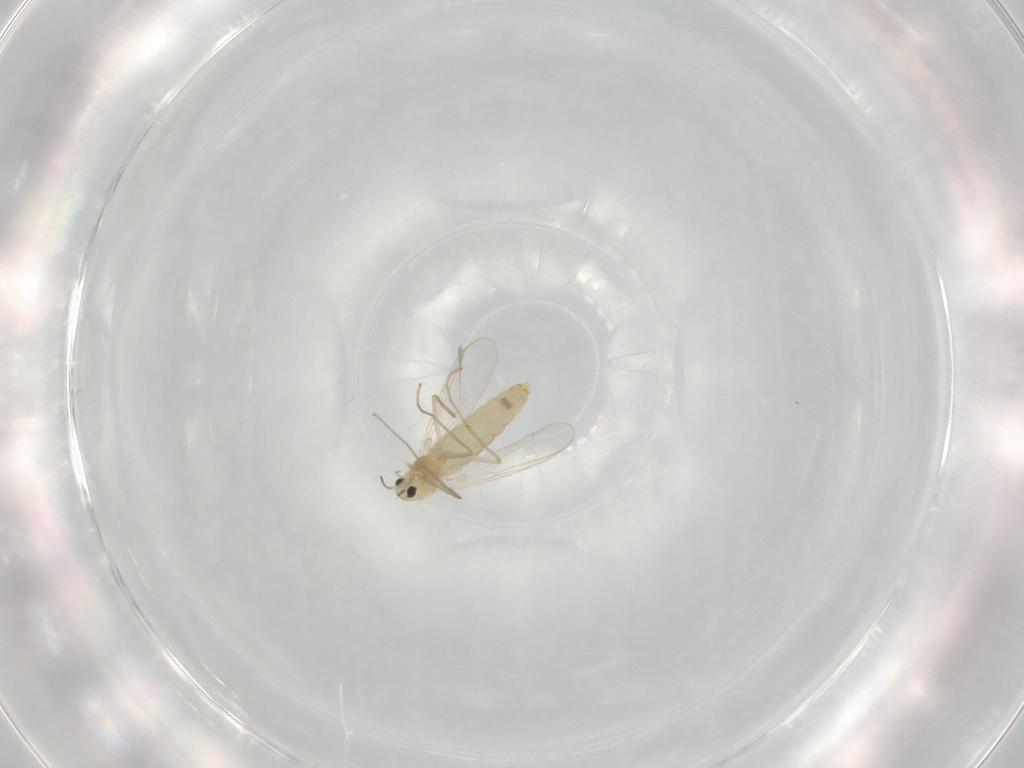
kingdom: Animalia
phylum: Arthropoda
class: Insecta
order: Diptera
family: Chironomidae
